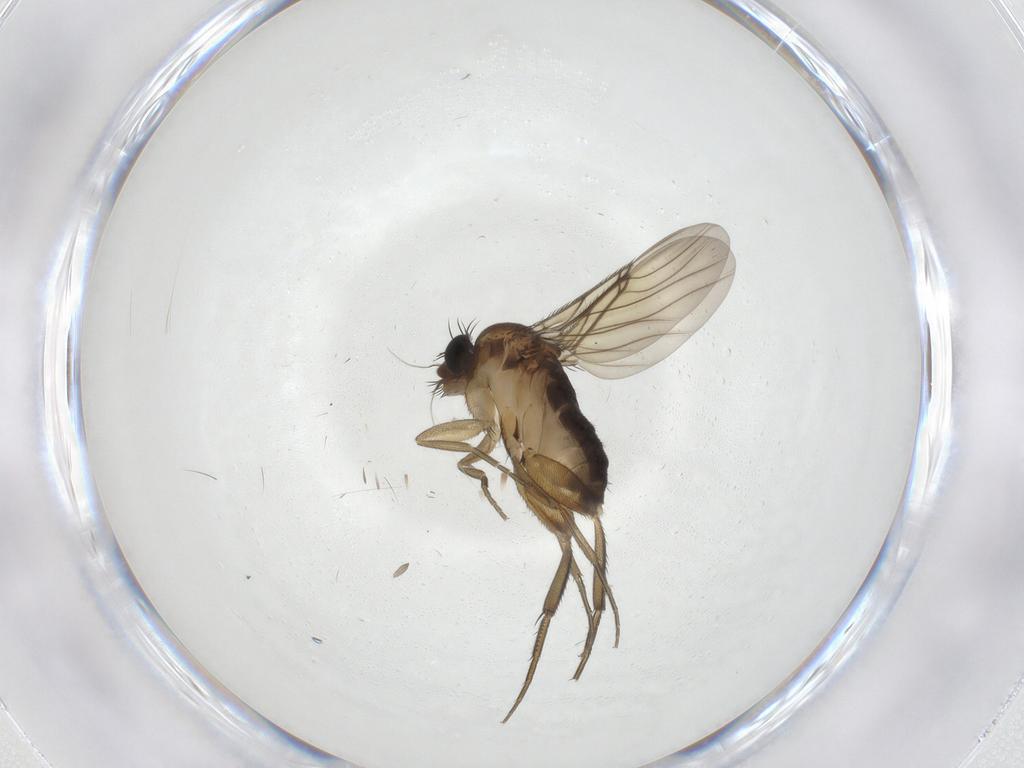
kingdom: Animalia
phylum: Arthropoda
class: Insecta
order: Diptera
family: Phoridae
